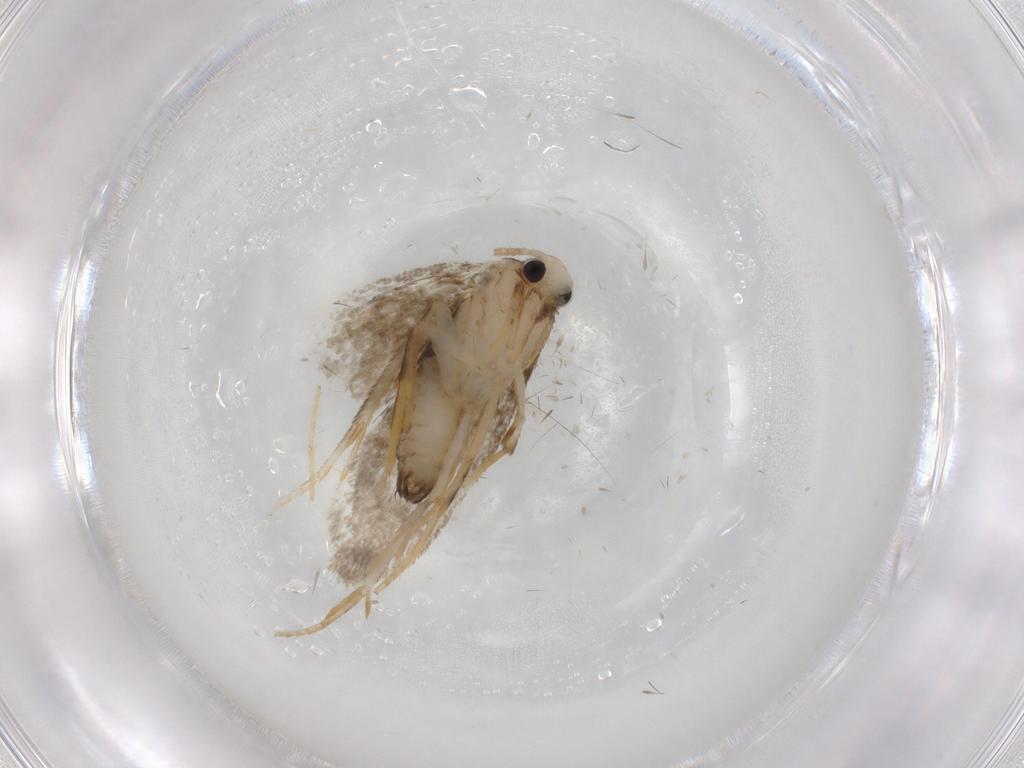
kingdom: Animalia
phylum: Arthropoda
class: Insecta
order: Lepidoptera
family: Psychidae
